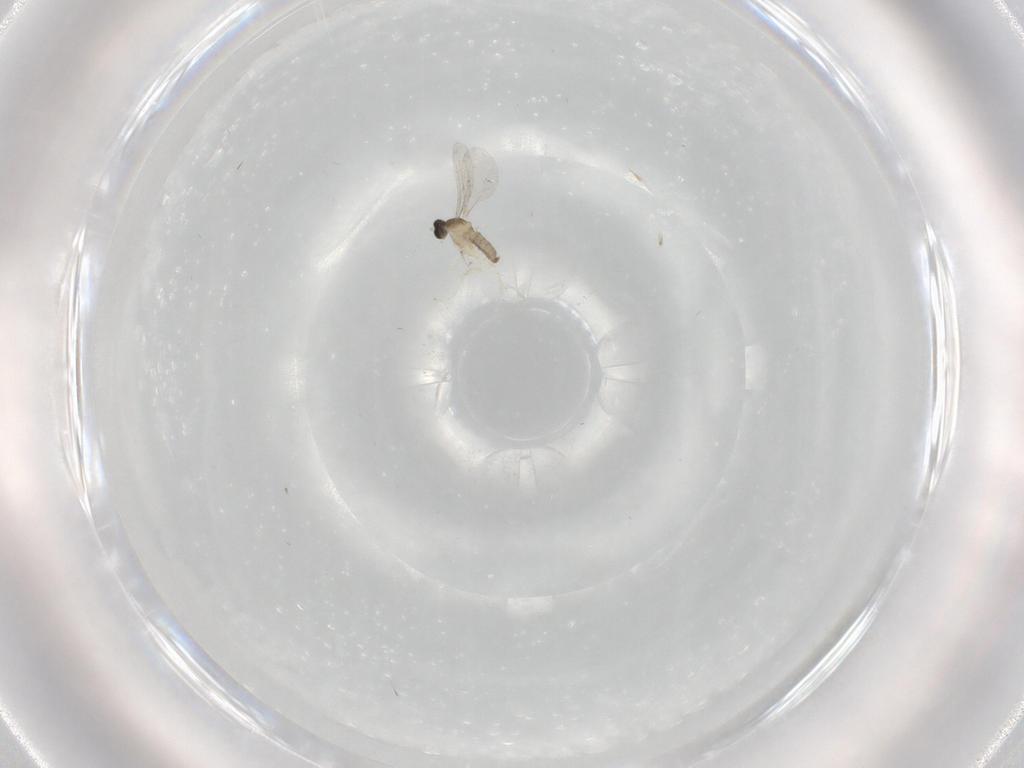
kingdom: Animalia
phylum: Arthropoda
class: Insecta
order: Diptera
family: Cecidomyiidae
